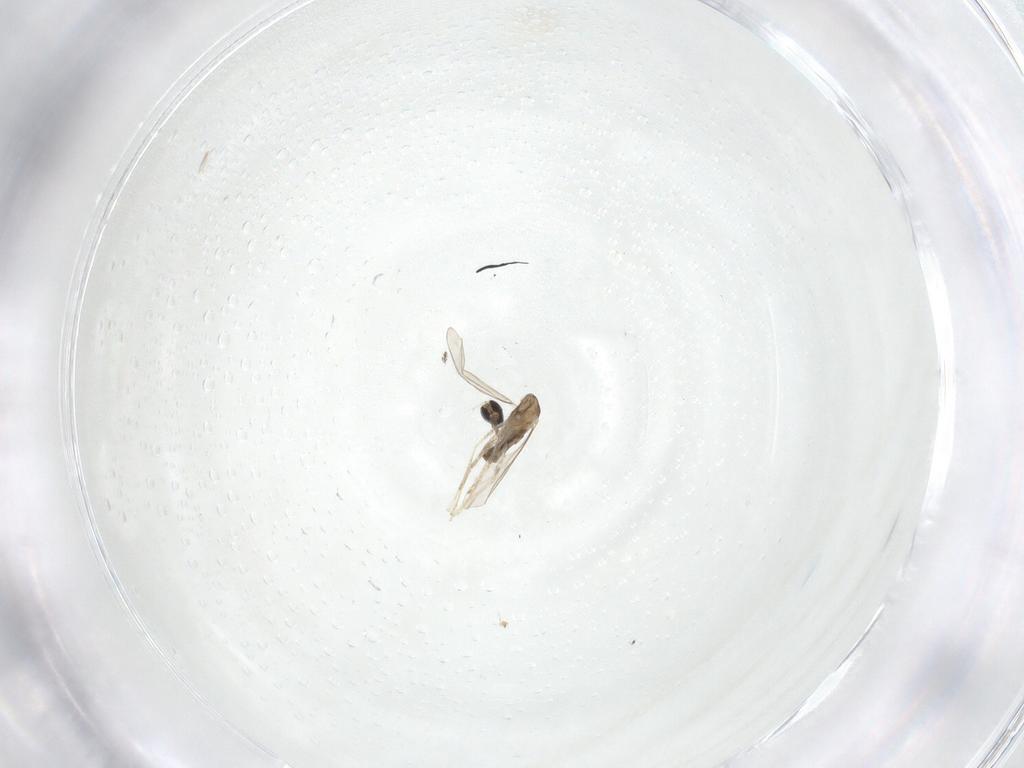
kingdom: Animalia
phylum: Arthropoda
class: Insecta
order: Diptera
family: Cecidomyiidae
